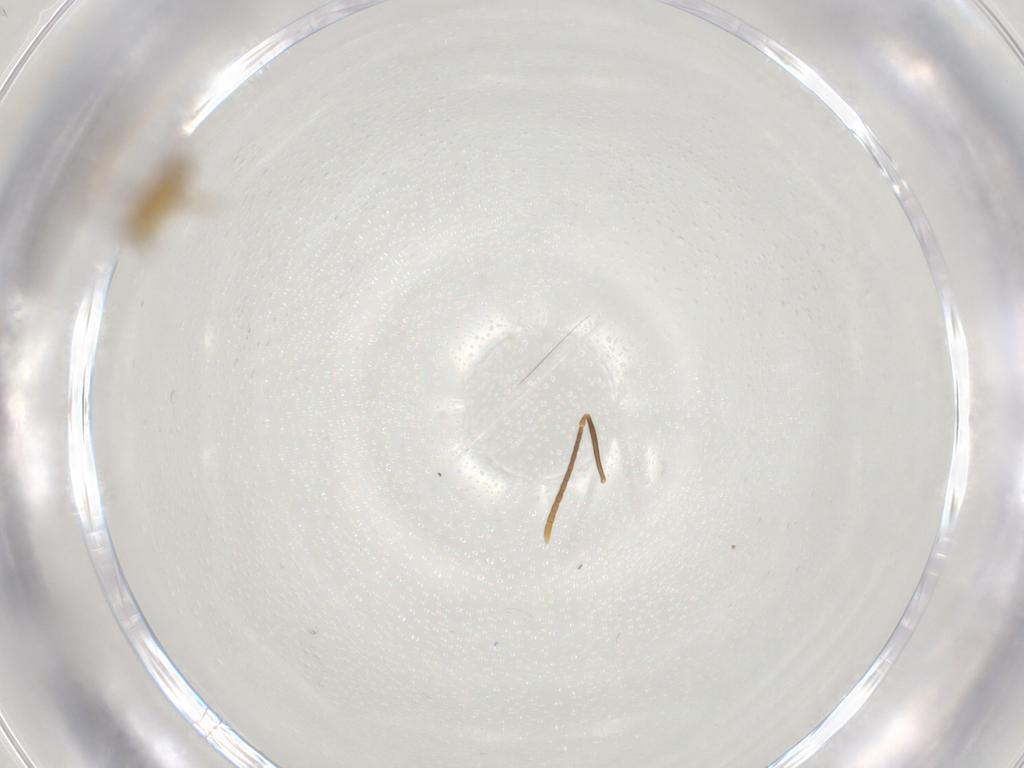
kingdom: Animalia
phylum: Arthropoda
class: Insecta
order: Diptera
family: Chironomidae
